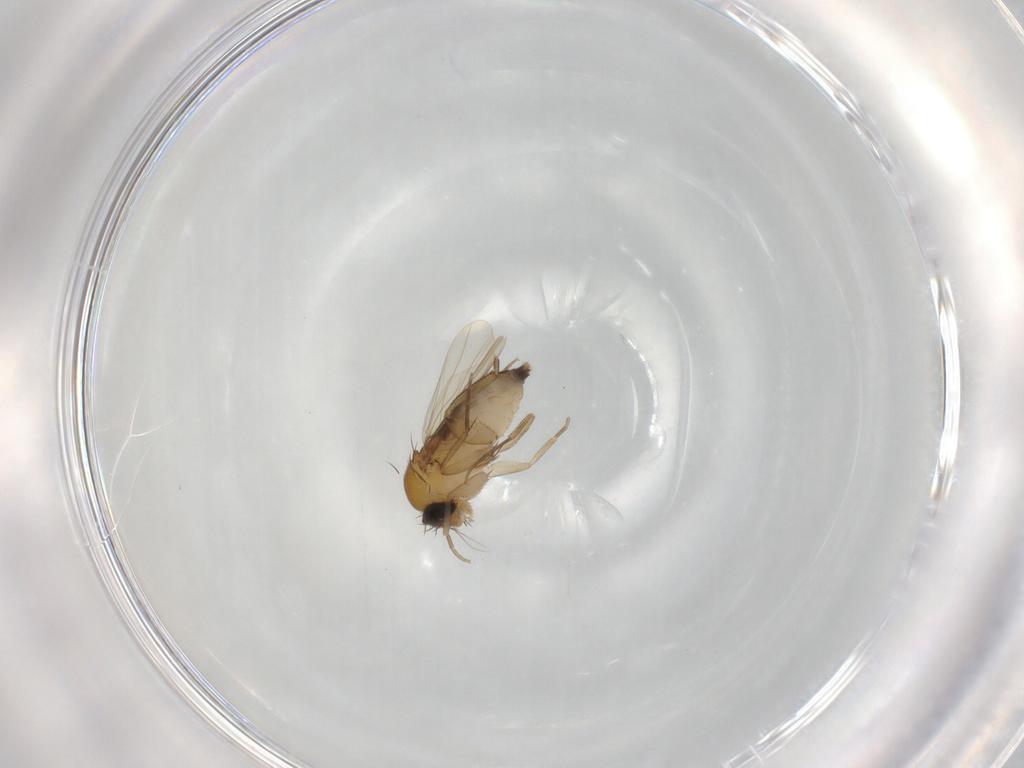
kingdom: Animalia
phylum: Arthropoda
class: Insecta
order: Diptera
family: Phoridae
